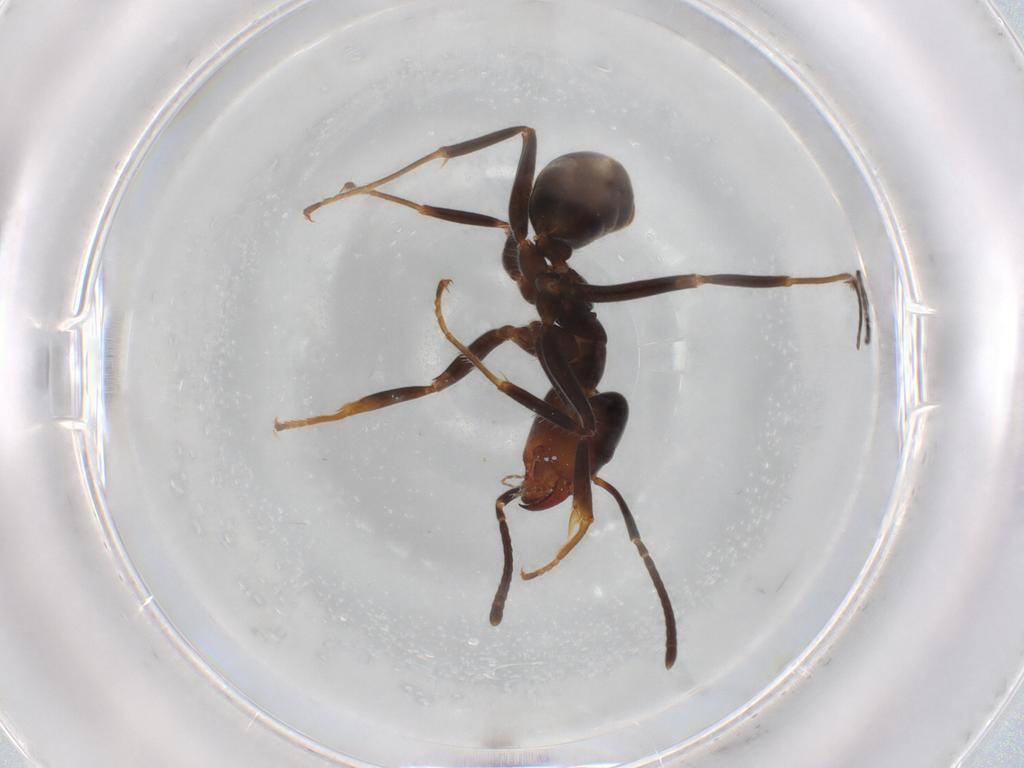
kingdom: Animalia
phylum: Arthropoda
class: Insecta
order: Hymenoptera
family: Formicidae
